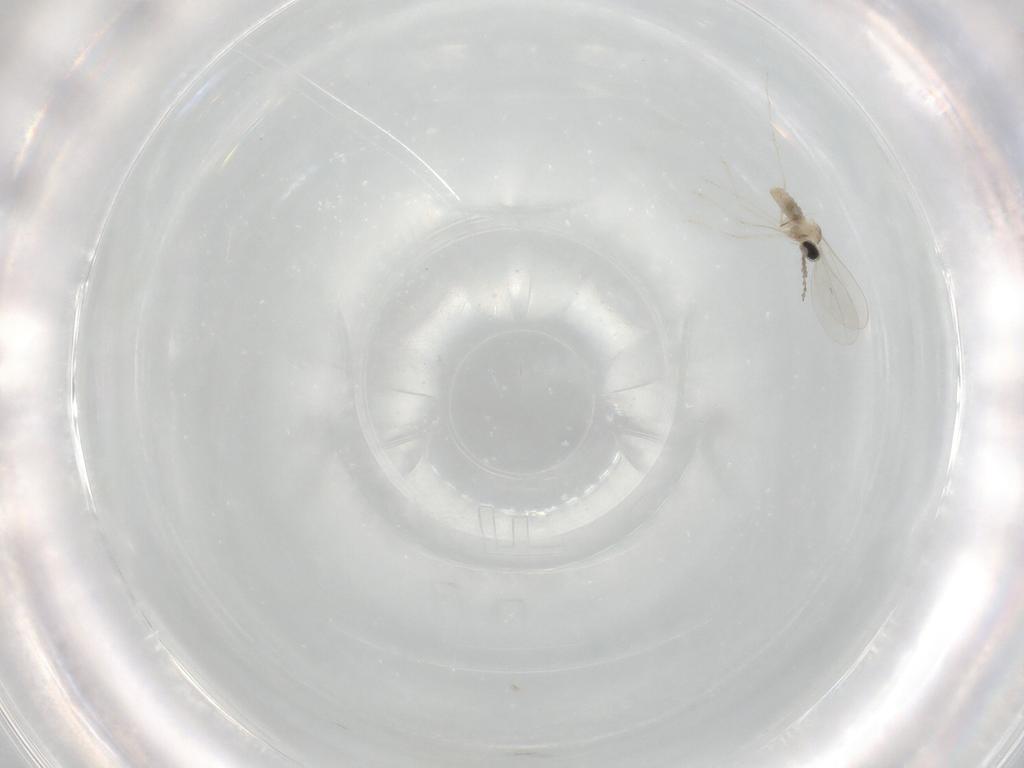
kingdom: Animalia
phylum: Arthropoda
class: Insecta
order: Diptera
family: Cecidomyiidae
